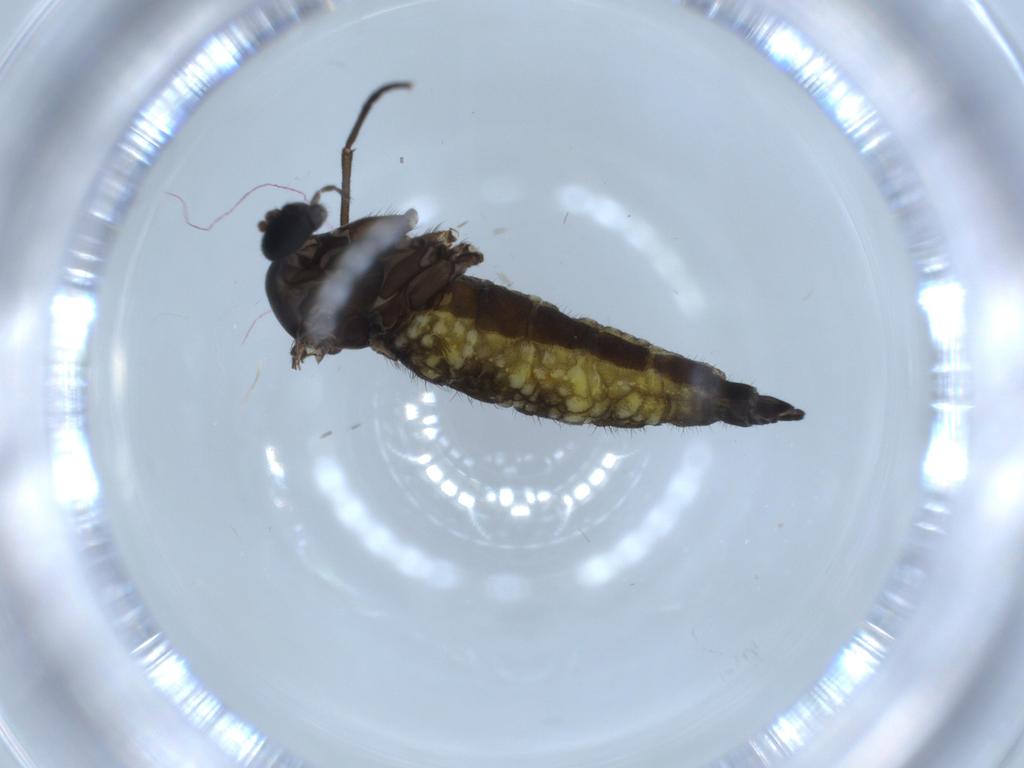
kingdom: Animalia
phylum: Arthropoda
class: Insecta
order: Diptera
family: Sciaridae
